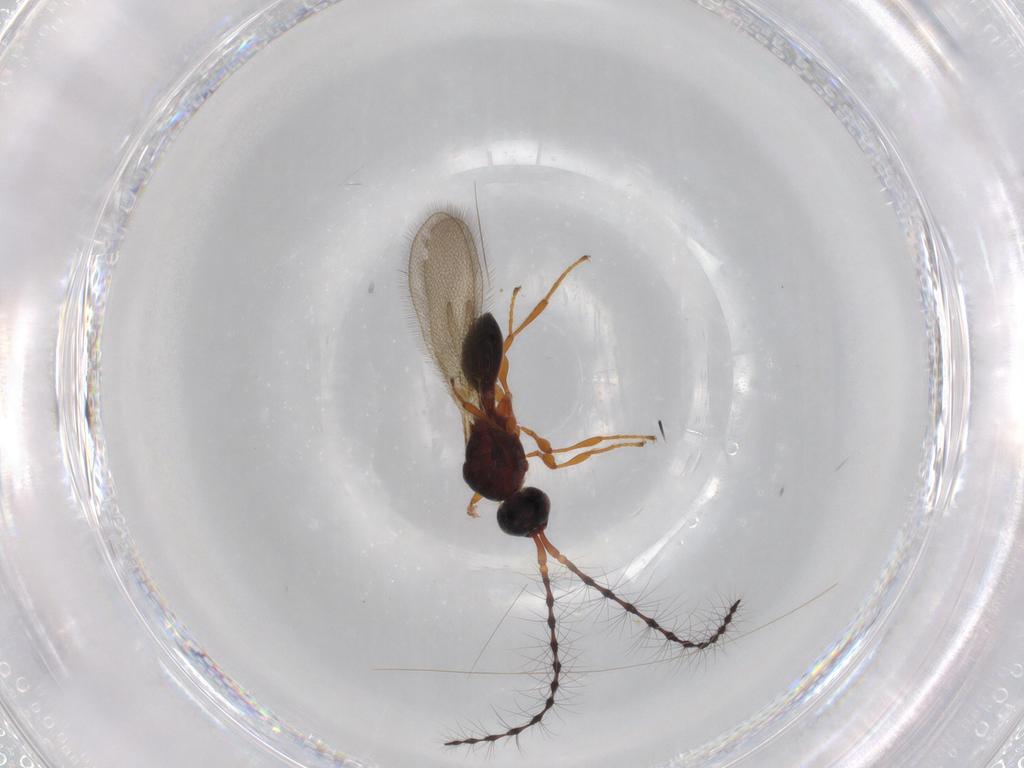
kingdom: Animalia
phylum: Arthropoda
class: Insecta
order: Hymenoptera
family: Diapriidae
